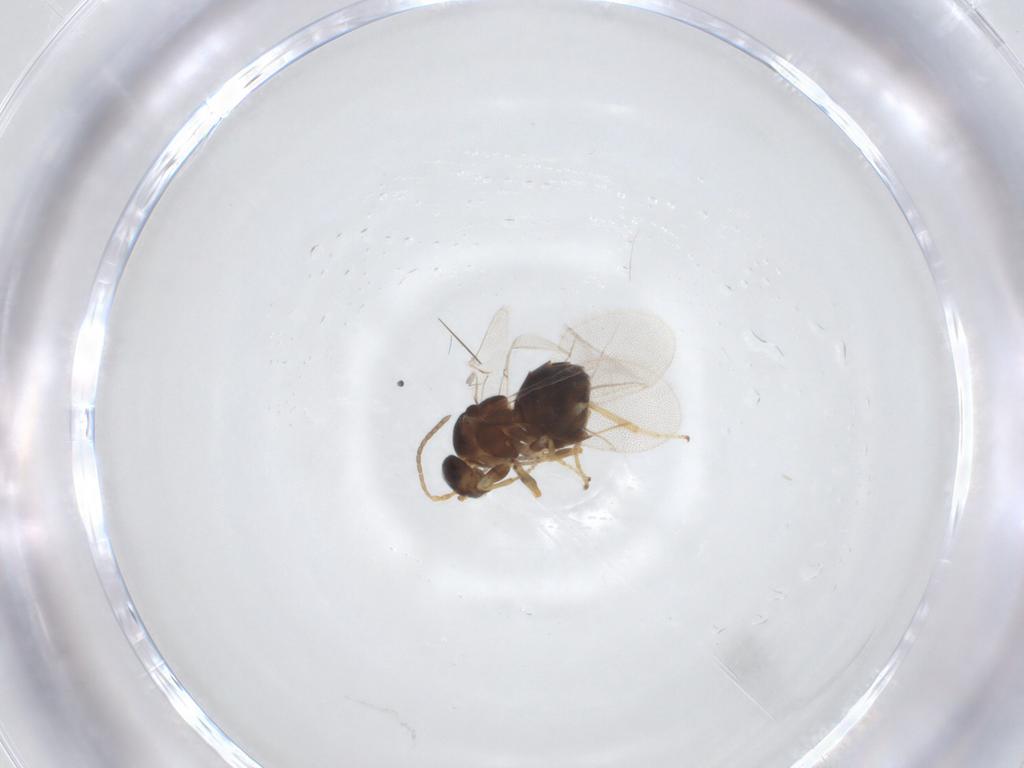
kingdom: Animalia
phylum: Arthropoda
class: Insecta
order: Hymenoptera
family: Cynipidae
